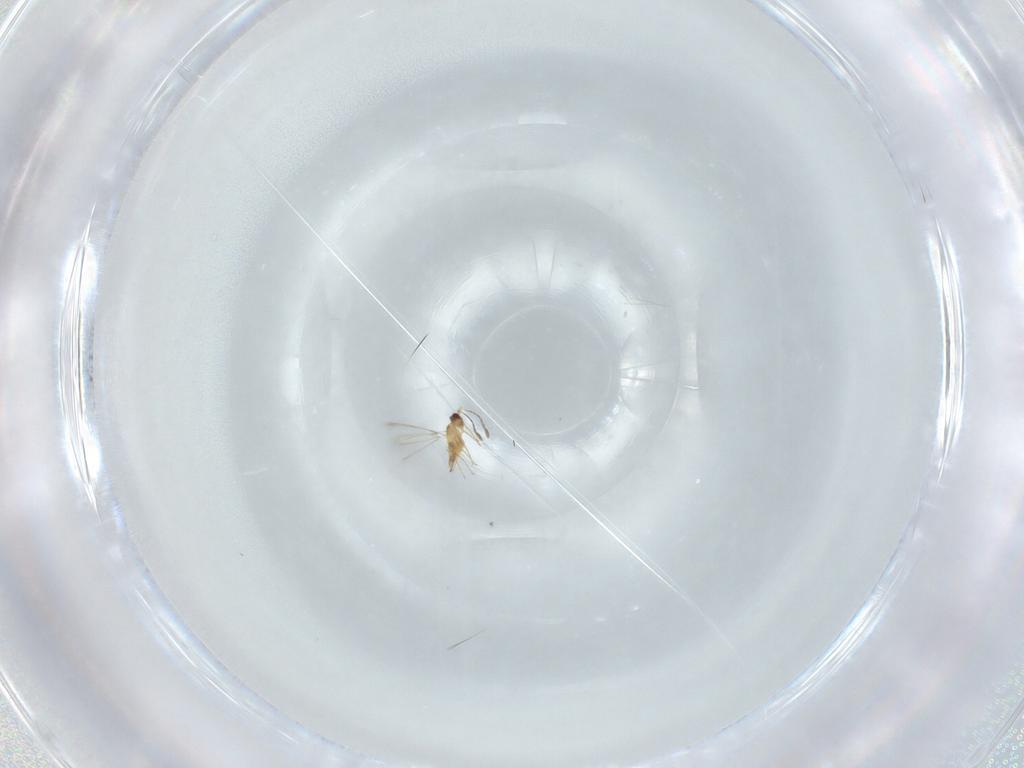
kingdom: Animalia
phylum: Arthropoda
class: Insecta
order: Hymenoptera
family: Mymaridae
